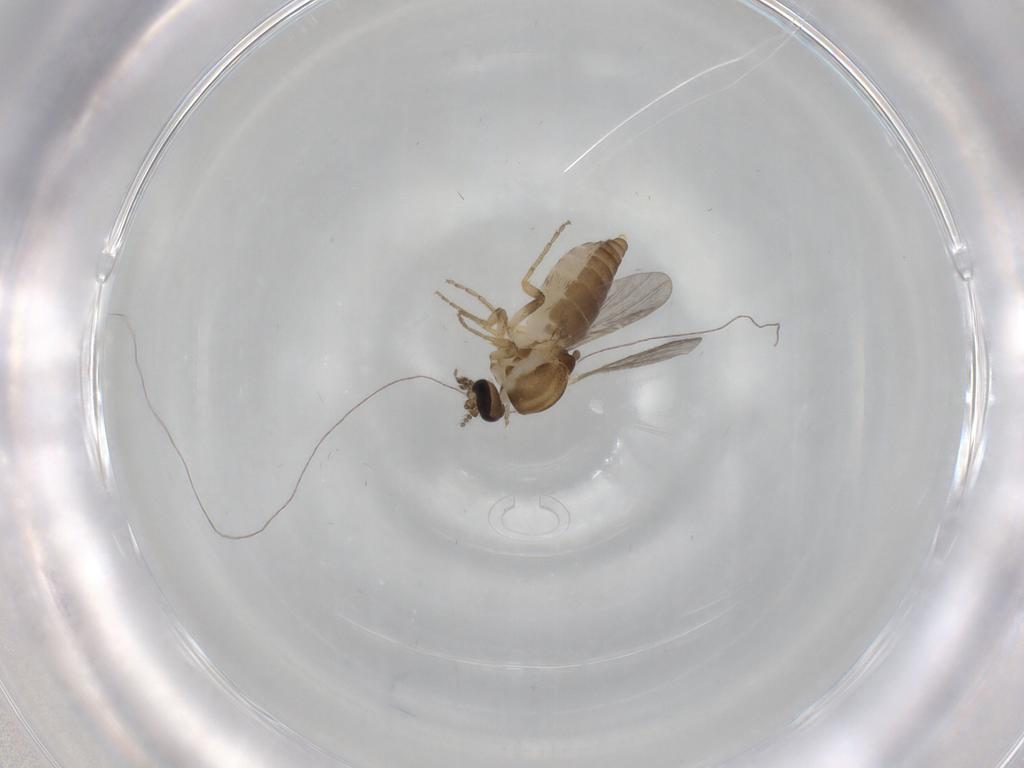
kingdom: Animalia
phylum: Arthropoda
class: Insecta
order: Diptera
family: Ceratopogonidae
